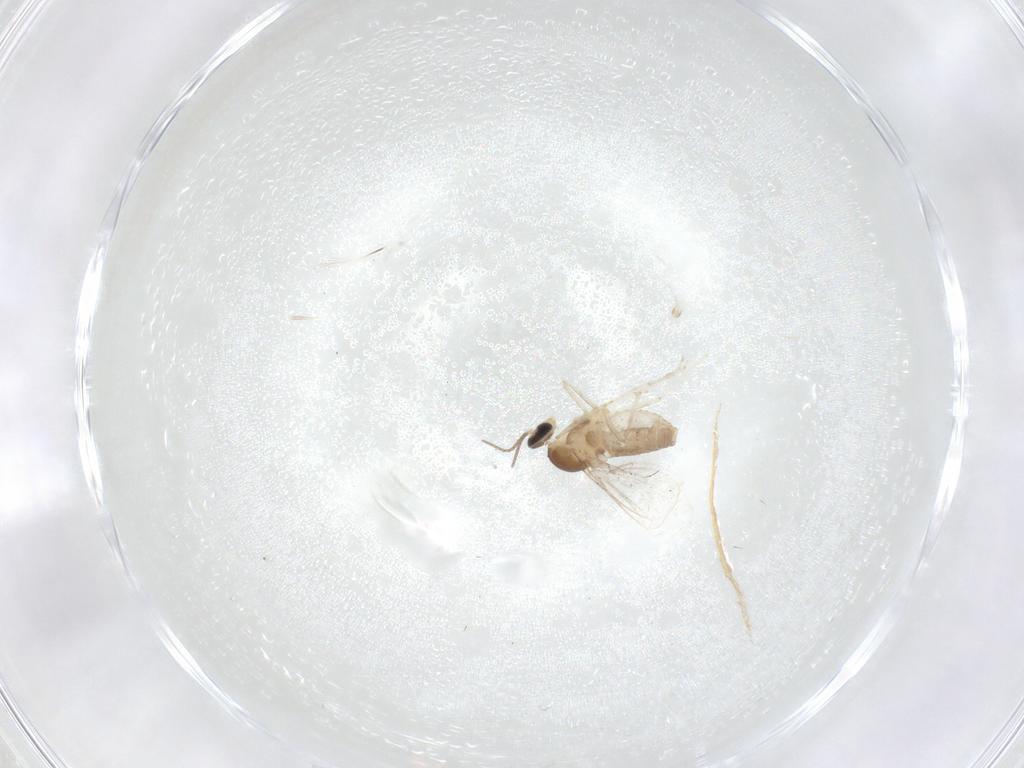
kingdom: Animalia
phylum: Arthropoda
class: Insecta
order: Diptera
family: Cecidomyiidae
